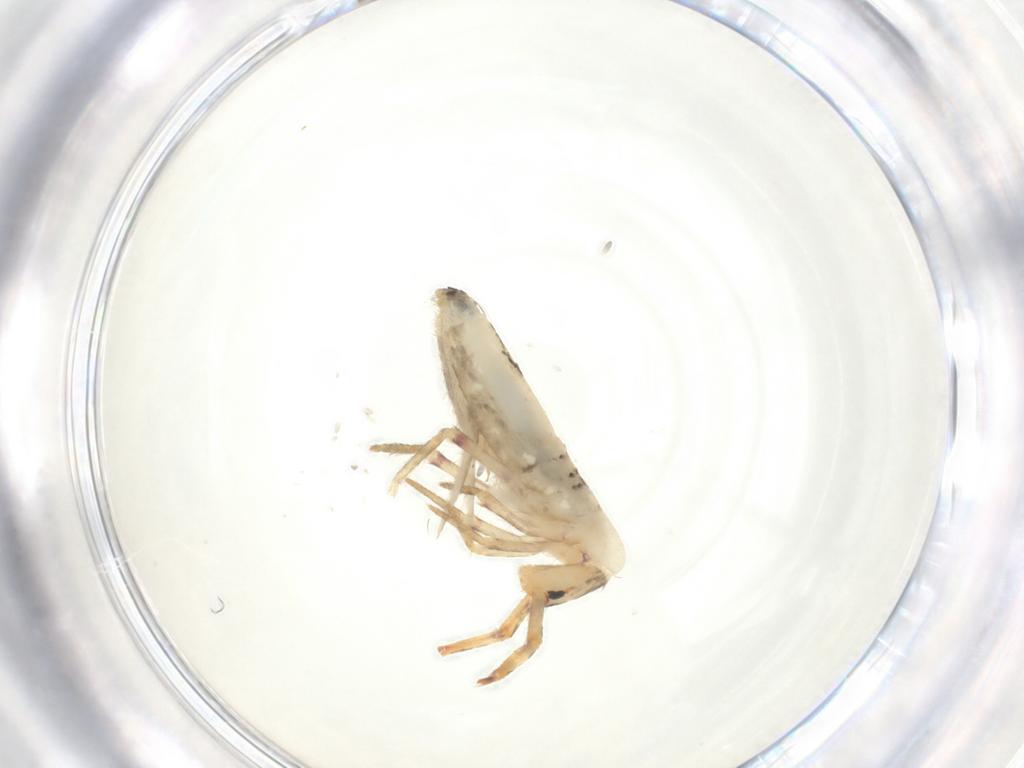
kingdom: Animalia
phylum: Arthropoda
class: Collembola
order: Poduromorpha
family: Hypogastruridae
